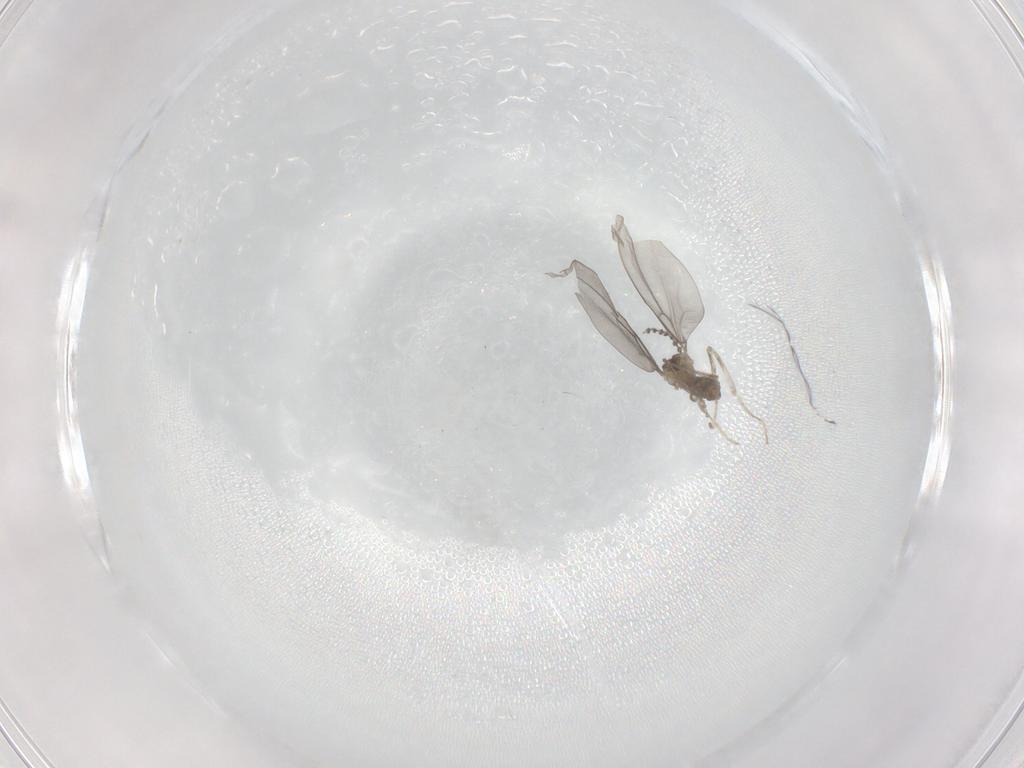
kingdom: Animalia
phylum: Arthropoda
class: Insecta
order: Diptera
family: Phoridae
